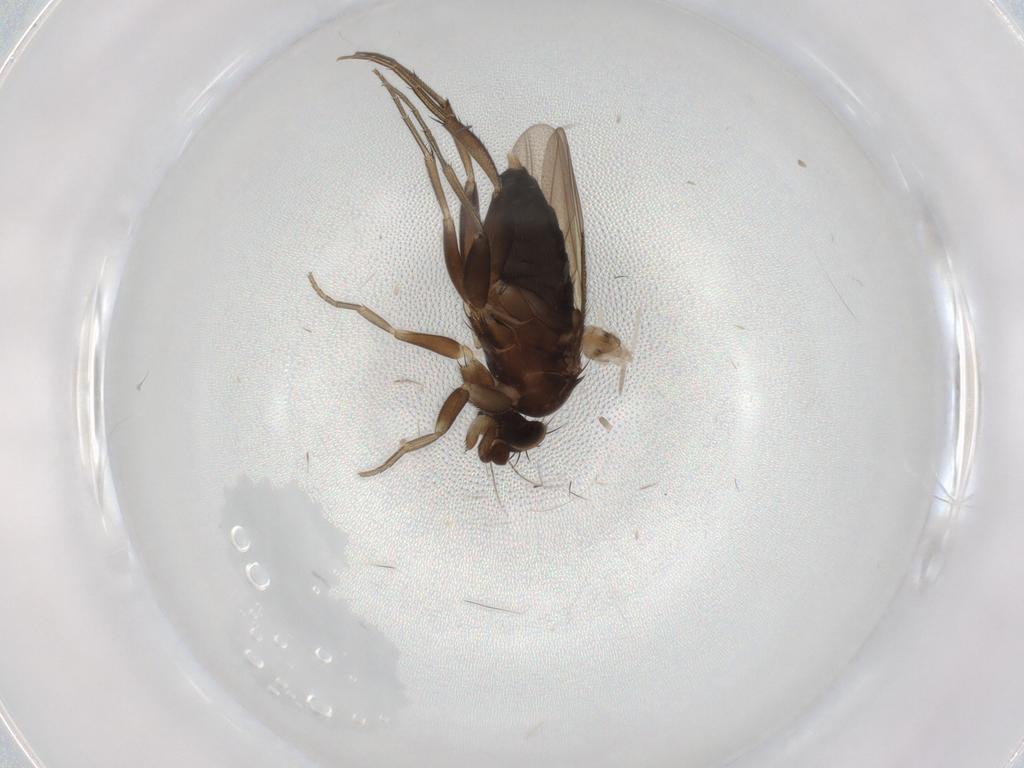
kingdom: Animalia
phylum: Arthropoda
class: Insecta
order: Diptera
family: Phoridae
